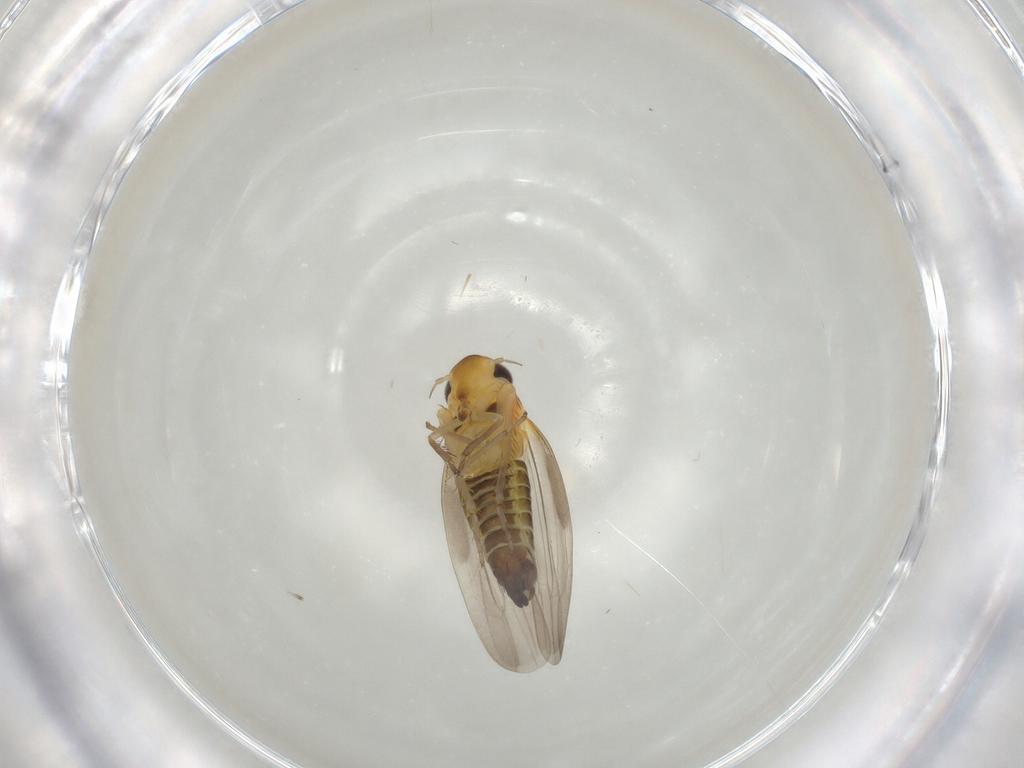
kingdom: Animalia
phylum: Arthropoda
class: Insecta
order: Hemiptera
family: Cicadellidae
